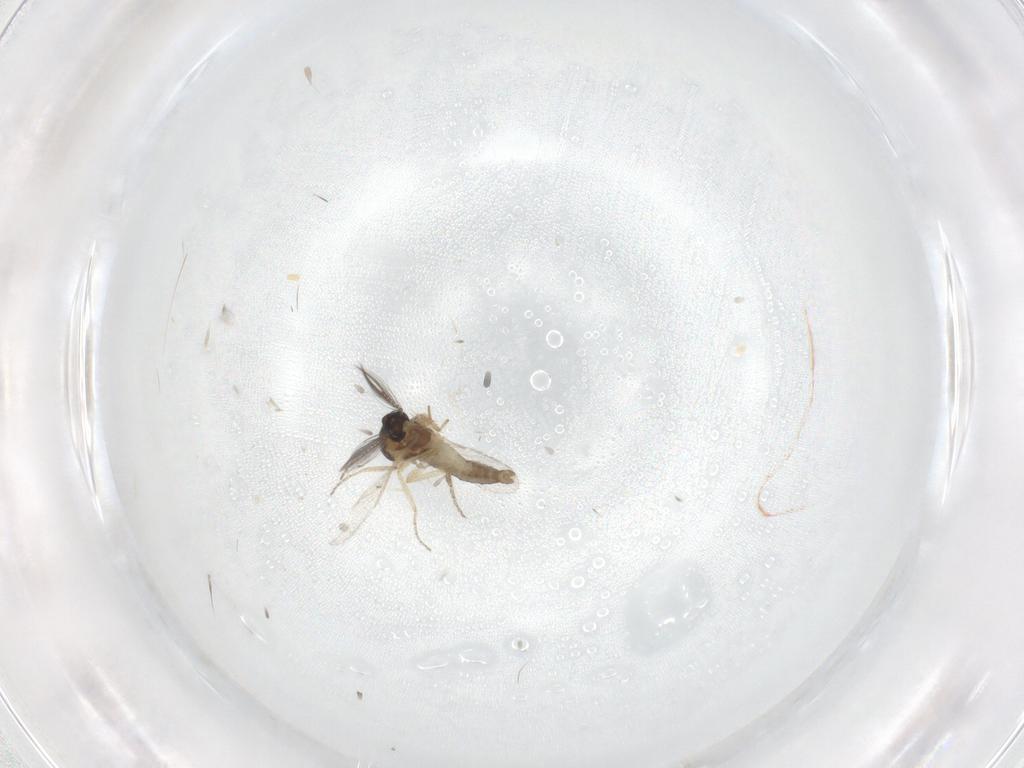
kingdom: Animalia
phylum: Arthropoda
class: Insecta
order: Diptera
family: Ceratopogonidae
